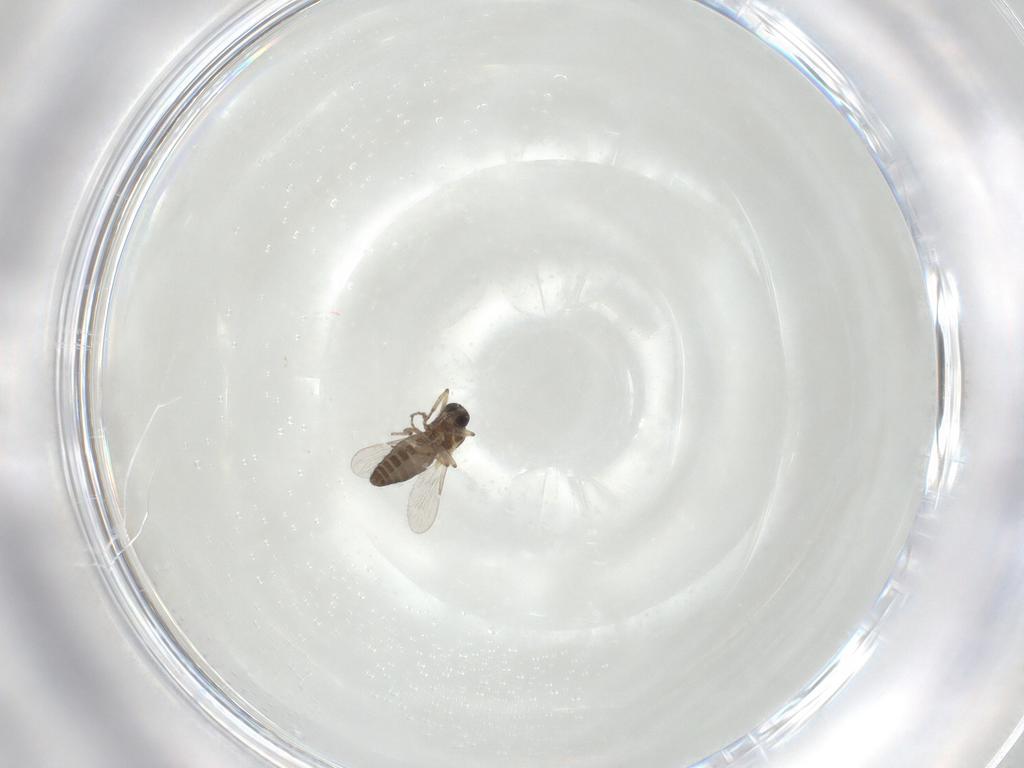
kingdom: Animalia
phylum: Arthropoda
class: Insecta
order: Diptera
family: Ceratopogonidae
